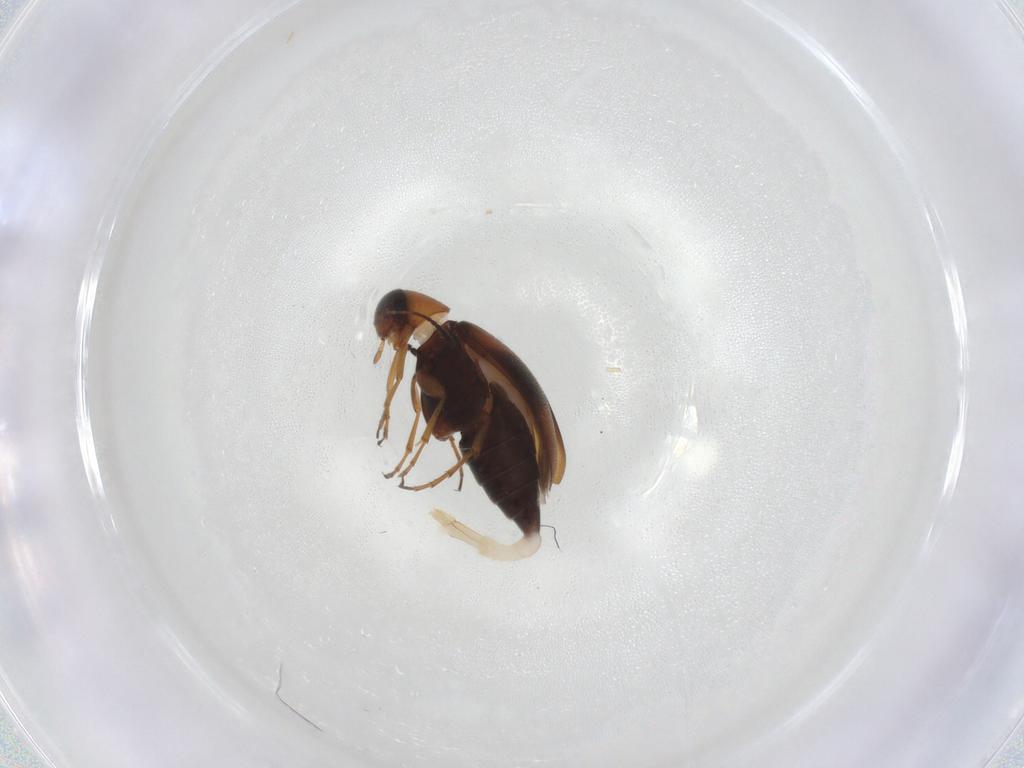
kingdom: Animalia
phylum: Arthropoda
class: Insecta
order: Coleoptera
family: Scraptiidae
